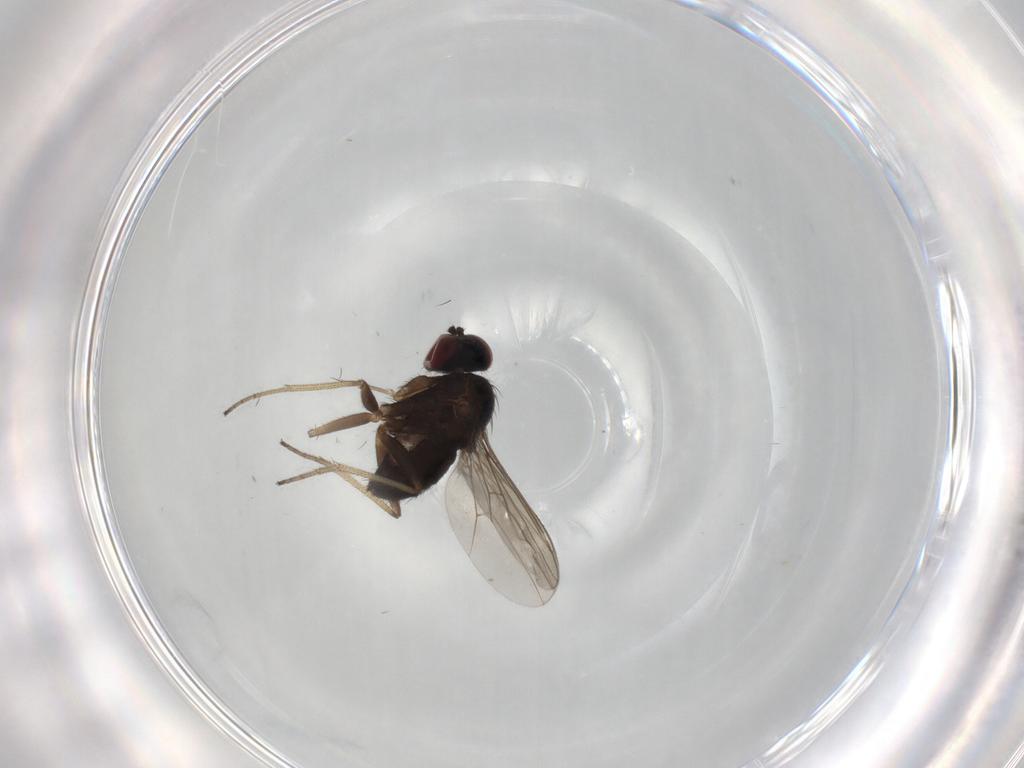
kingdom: Animalia
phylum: Arthropoda
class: Insecta
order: Diptera
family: Dolichopodidae
